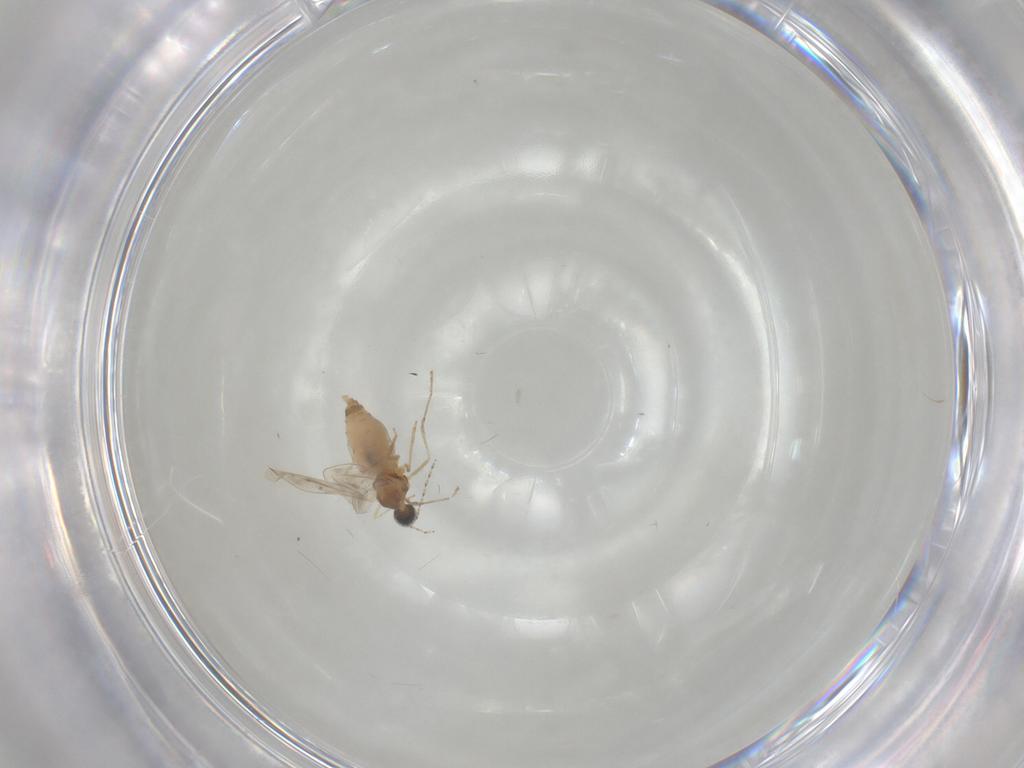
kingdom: Animalia
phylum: Arthropoda
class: Insecta
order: Diptera
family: Cecidomyiidae
